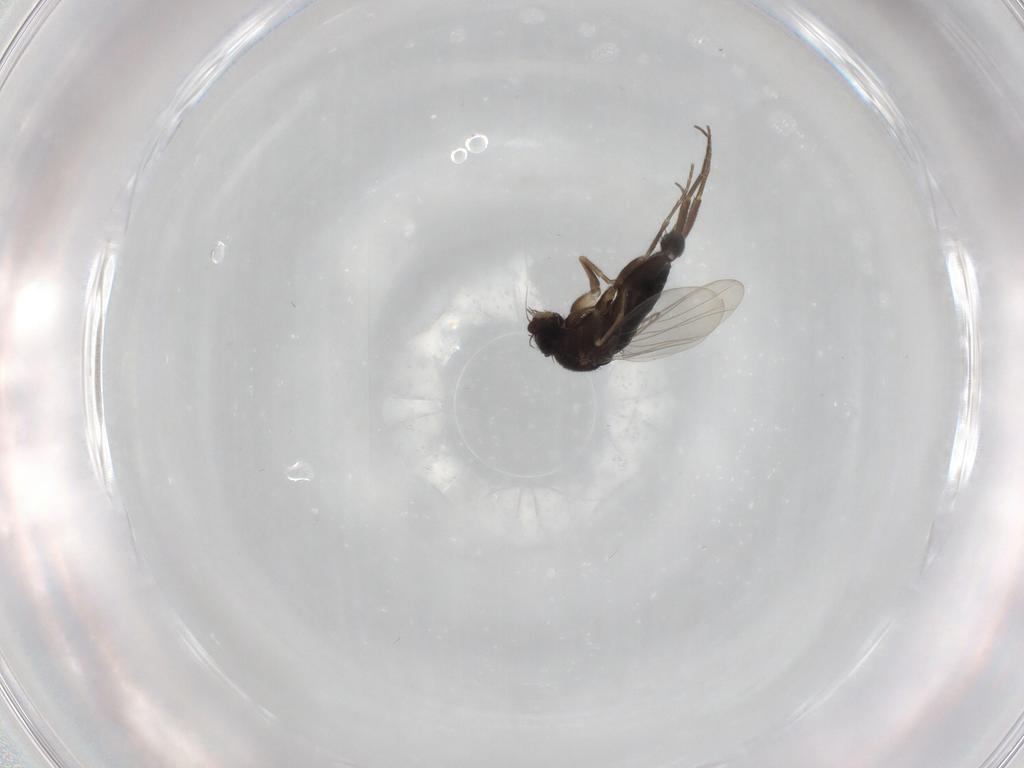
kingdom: Animalia
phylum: Arthropoda
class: Insecta
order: Diptera
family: Phoridae
